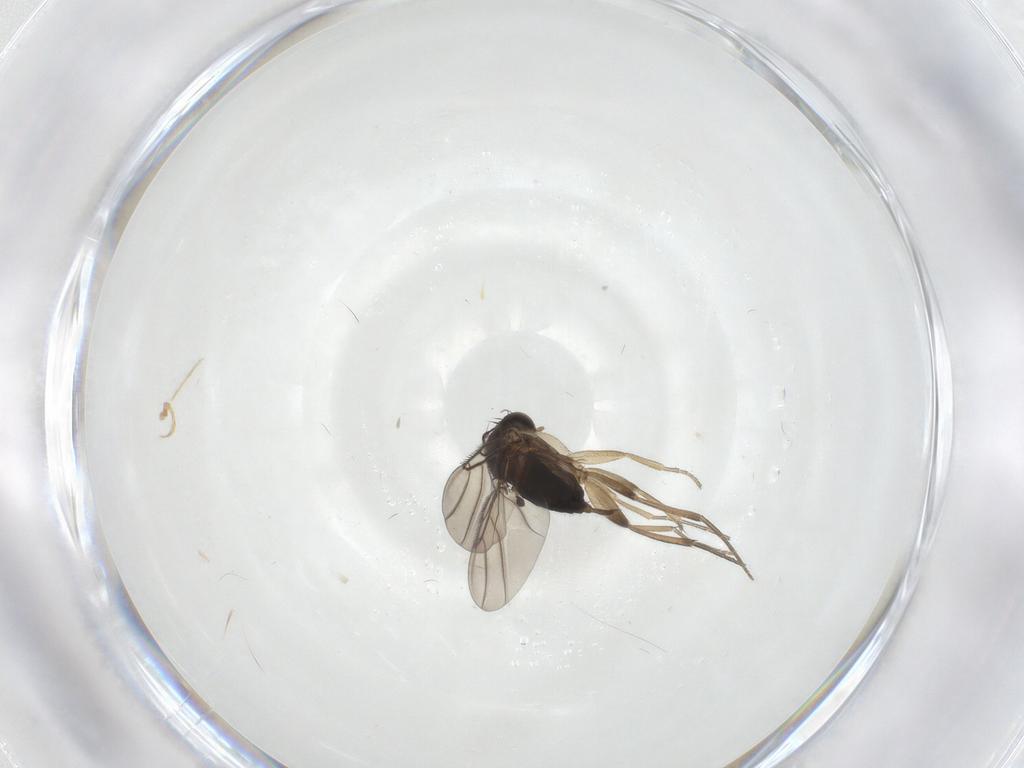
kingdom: Animalia
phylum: Arthropoda
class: Insecta
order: Diptera
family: Phoridae
